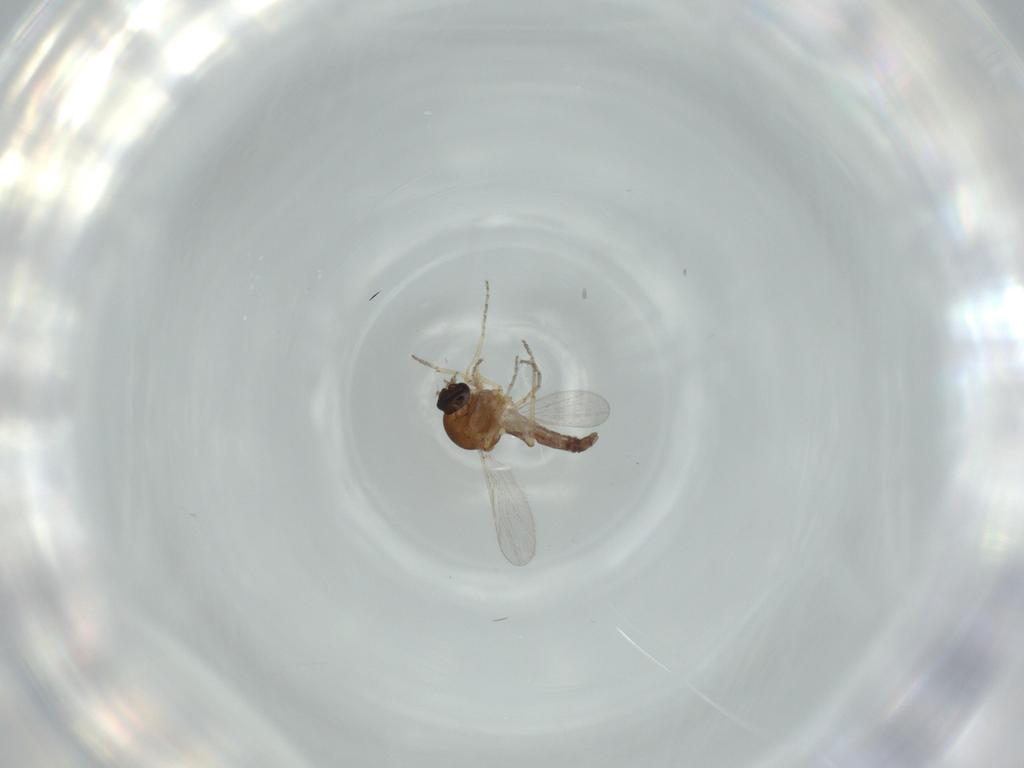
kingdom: Animalia
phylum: Arthropoda
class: Insecta
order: Diptera
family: Ceratopogonidae
